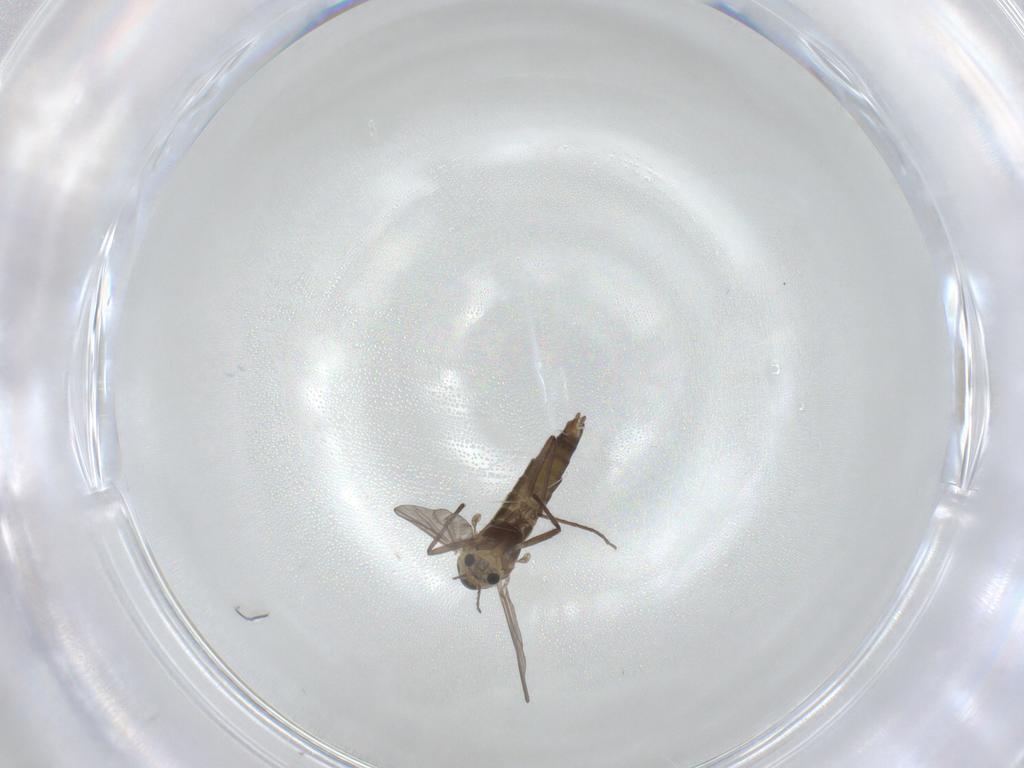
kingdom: Animalia
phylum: Arthropoda
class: Insecta
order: Diptera
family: Chironomidae
